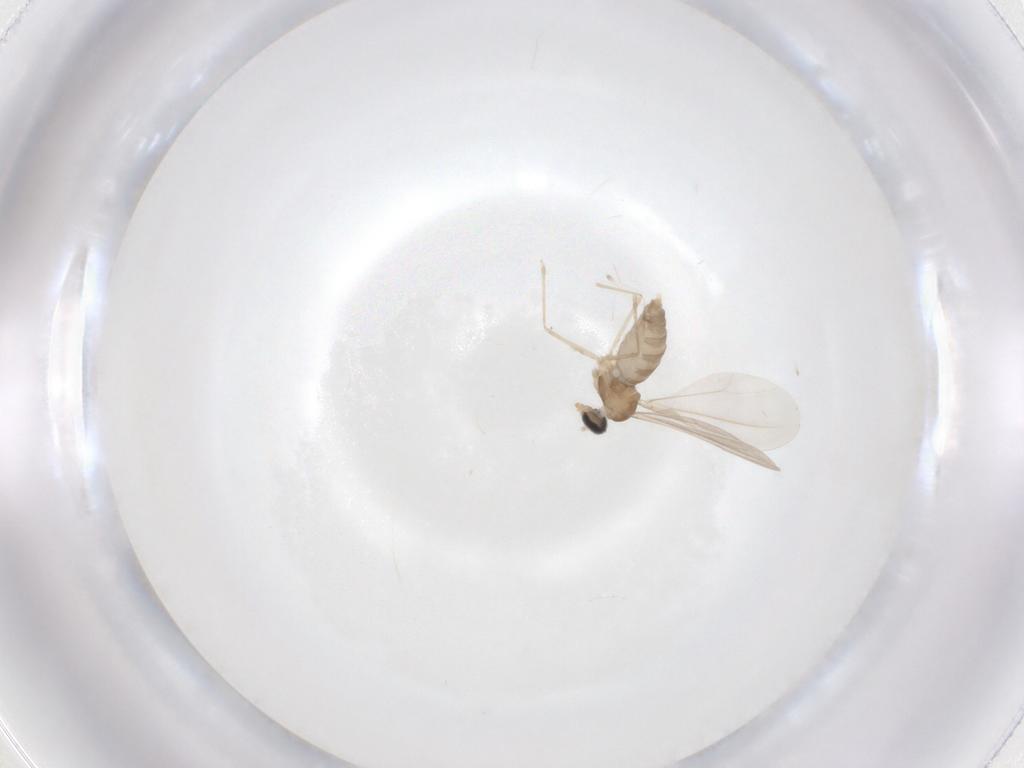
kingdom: Animalia
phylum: Arthropoda
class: Insecta
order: Diptera
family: Cecidomyiidae
